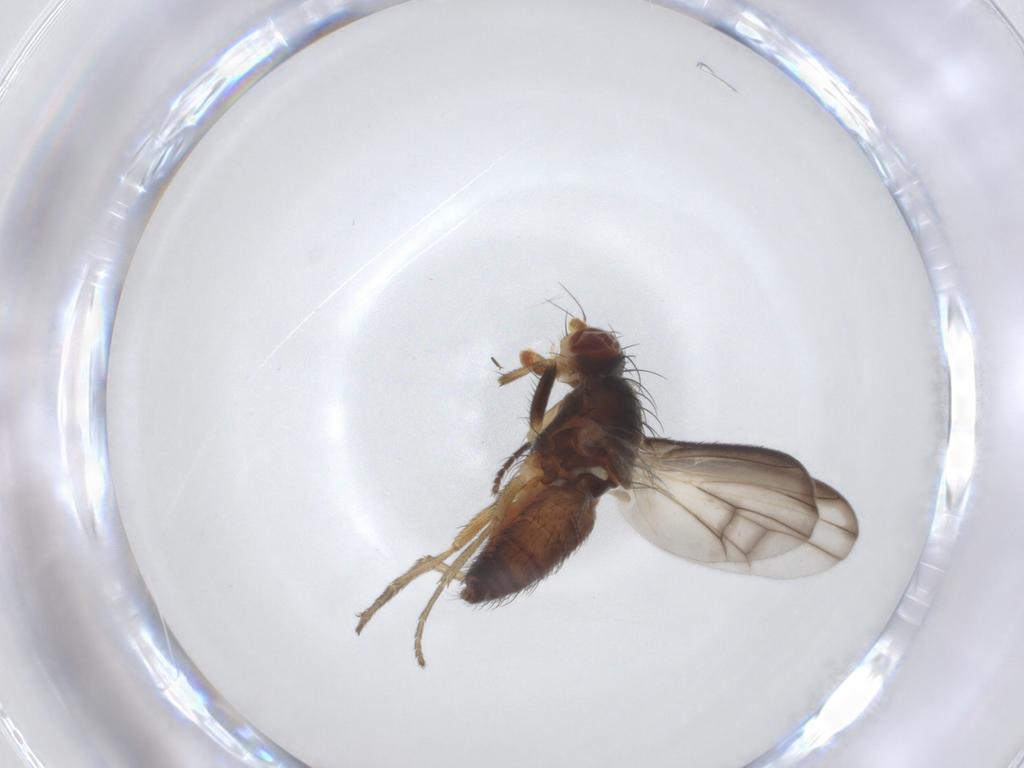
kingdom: Animalia
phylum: Arthropoda
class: Insecta
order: Diptera
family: Heleomyzidae
